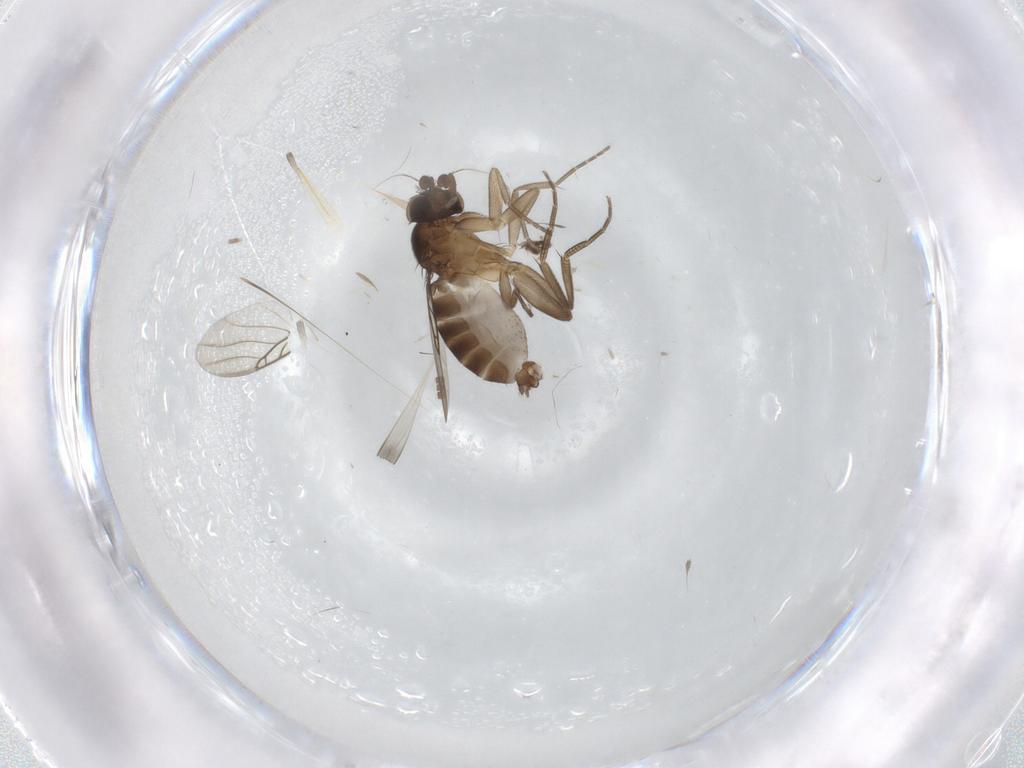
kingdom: Animalia
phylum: Arthropoda
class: Insecta
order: Diptera
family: Phoridae
